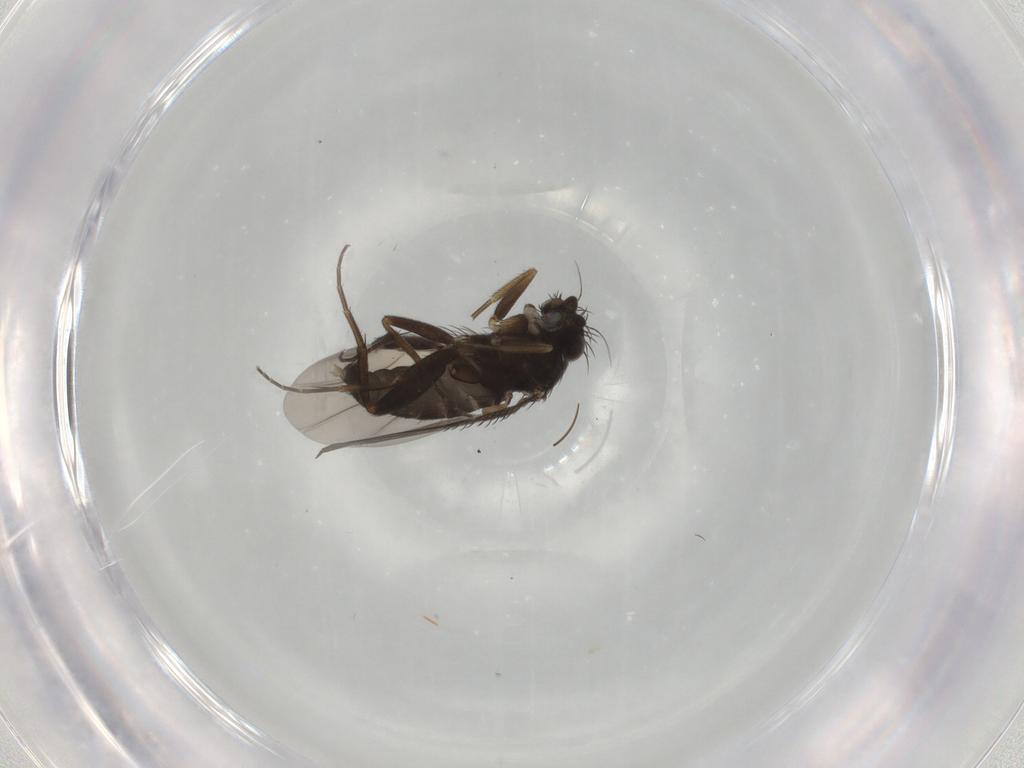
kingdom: Animalia
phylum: Arthropoda
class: Insecta
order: Diptera
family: Phoridae
